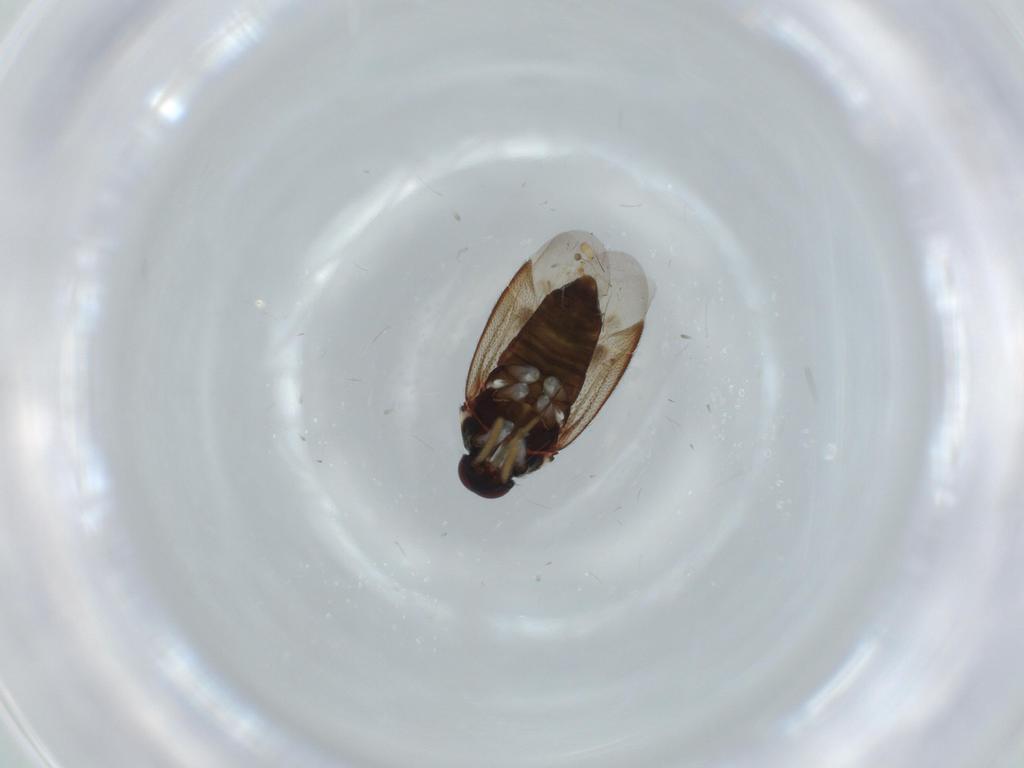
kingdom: Animalia
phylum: Arthropoda
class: Insecta
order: Hemiptera
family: Miridae
